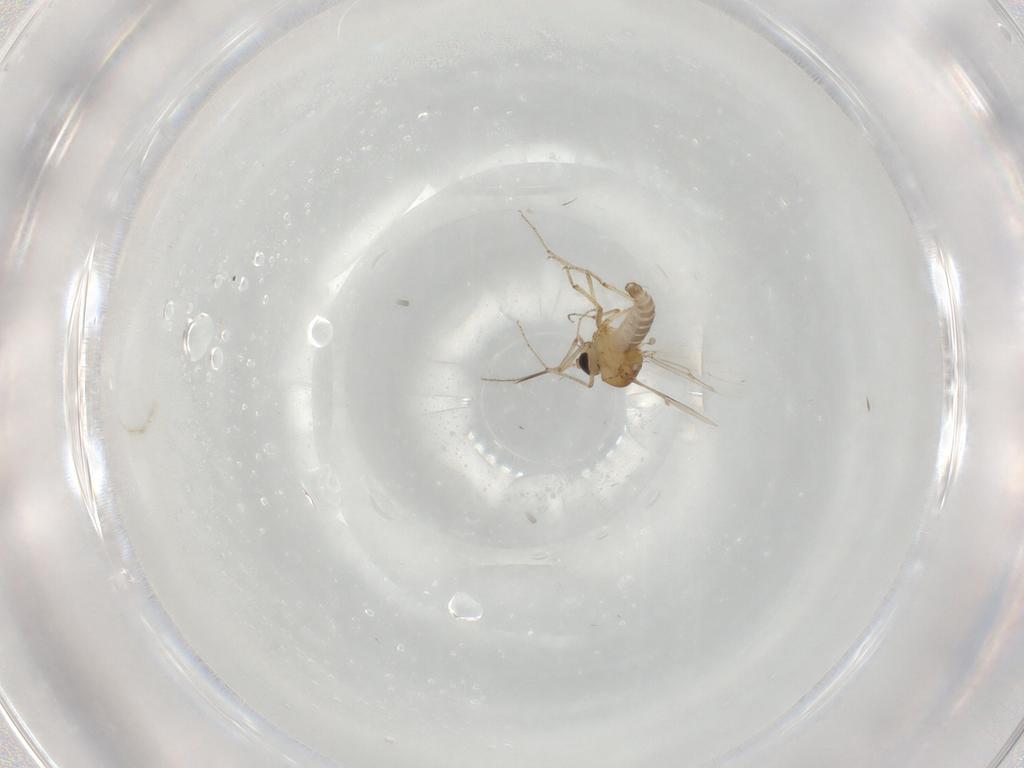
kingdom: Animalia
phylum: Arthropoda
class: Insecta
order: Diptera
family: Ceratopogonidae
